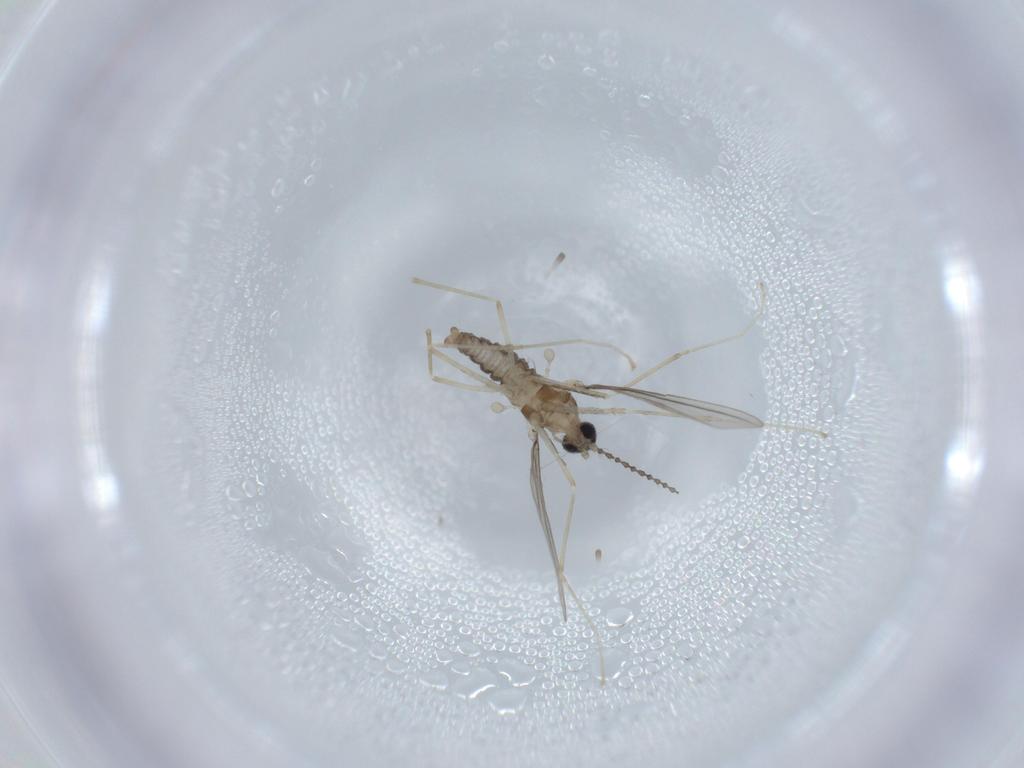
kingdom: Animalia
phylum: Arthropoda
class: Insecta
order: Diptera
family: Cecidomyiidae
